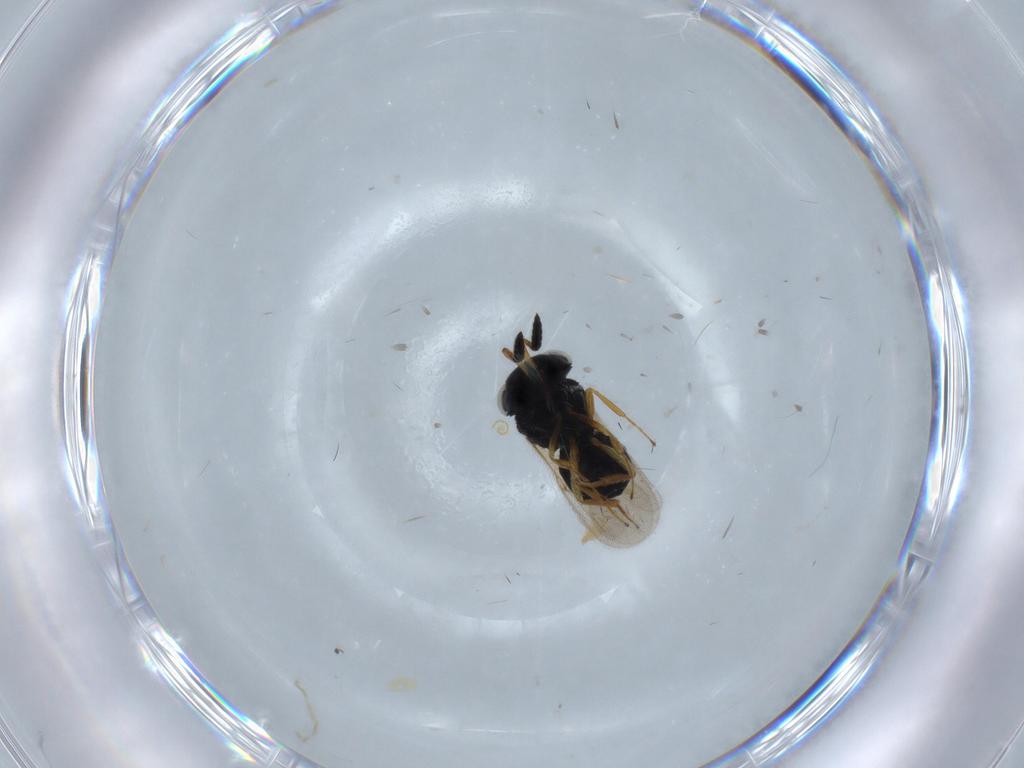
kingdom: Animalia
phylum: Arthropoda
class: Insecta
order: Hymenoptera
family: Scelionidae
